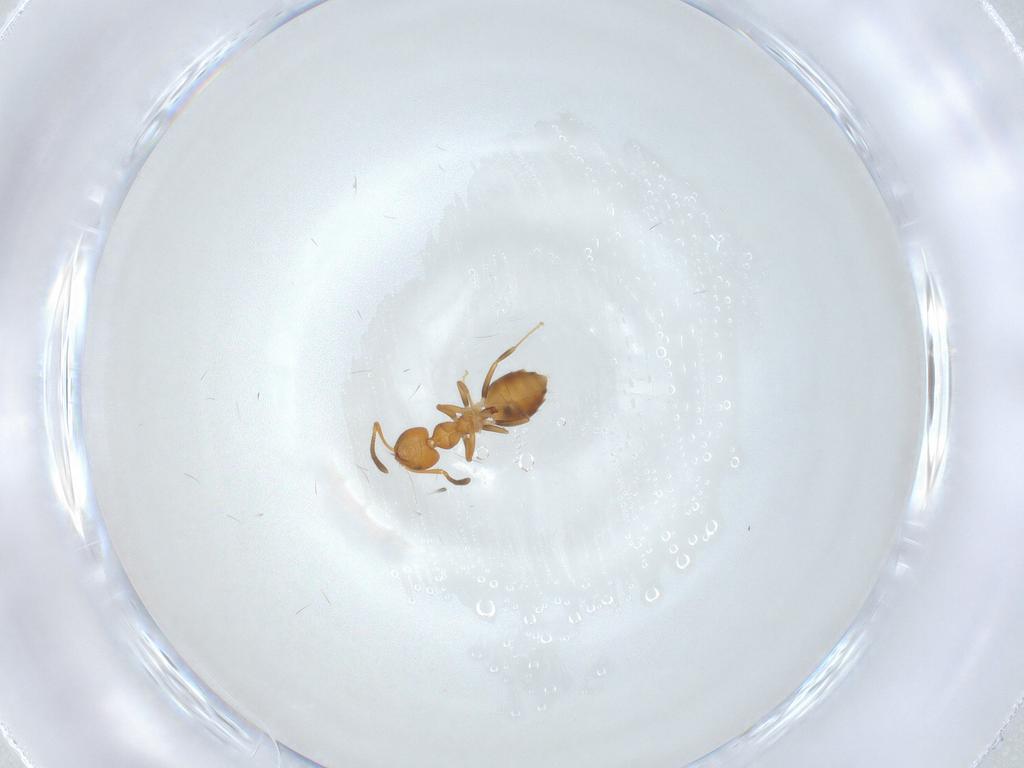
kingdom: Animalia
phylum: Arthropoda
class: Insecta
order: Hymenoptera
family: Formicidae
